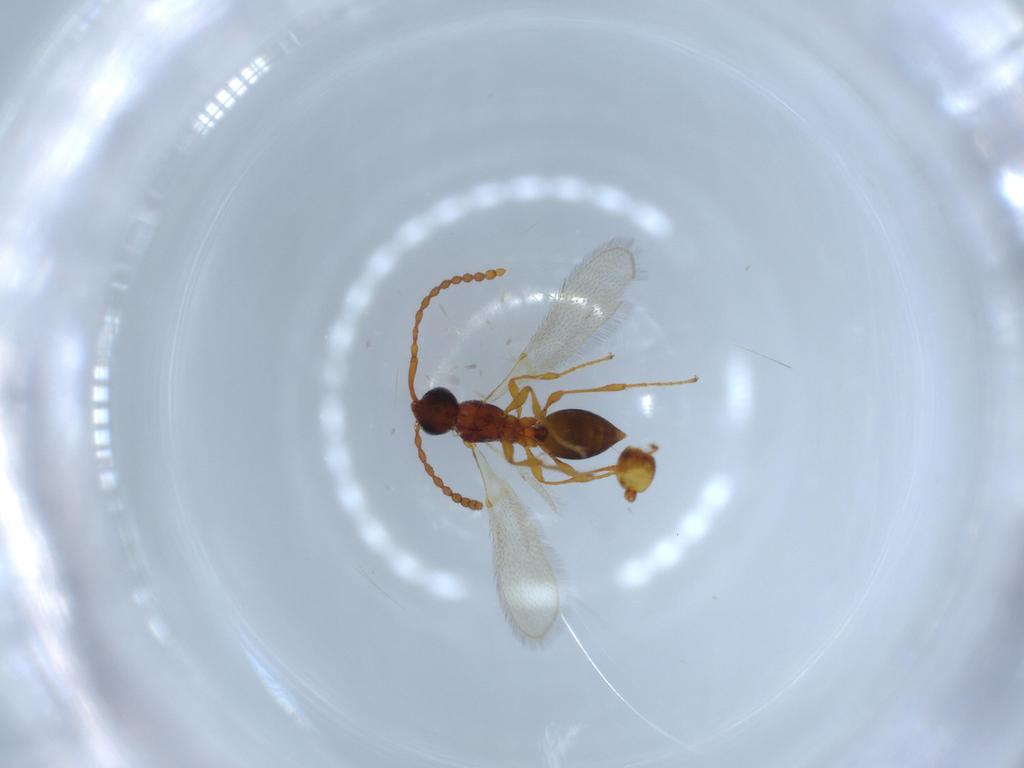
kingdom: Animalia
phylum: Arthropoda
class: Insecta
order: Hymenoptera
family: Diapriidae
